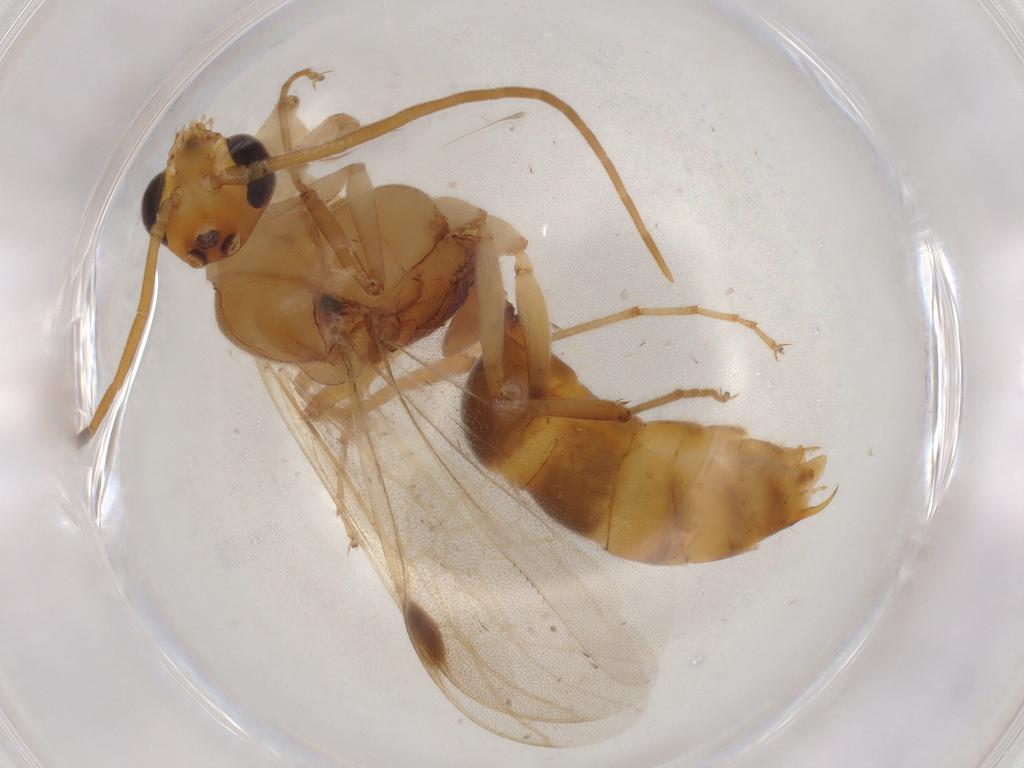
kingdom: Animalia
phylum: Arthropoda
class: Insecta
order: Hymenoptera
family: Formicidae
